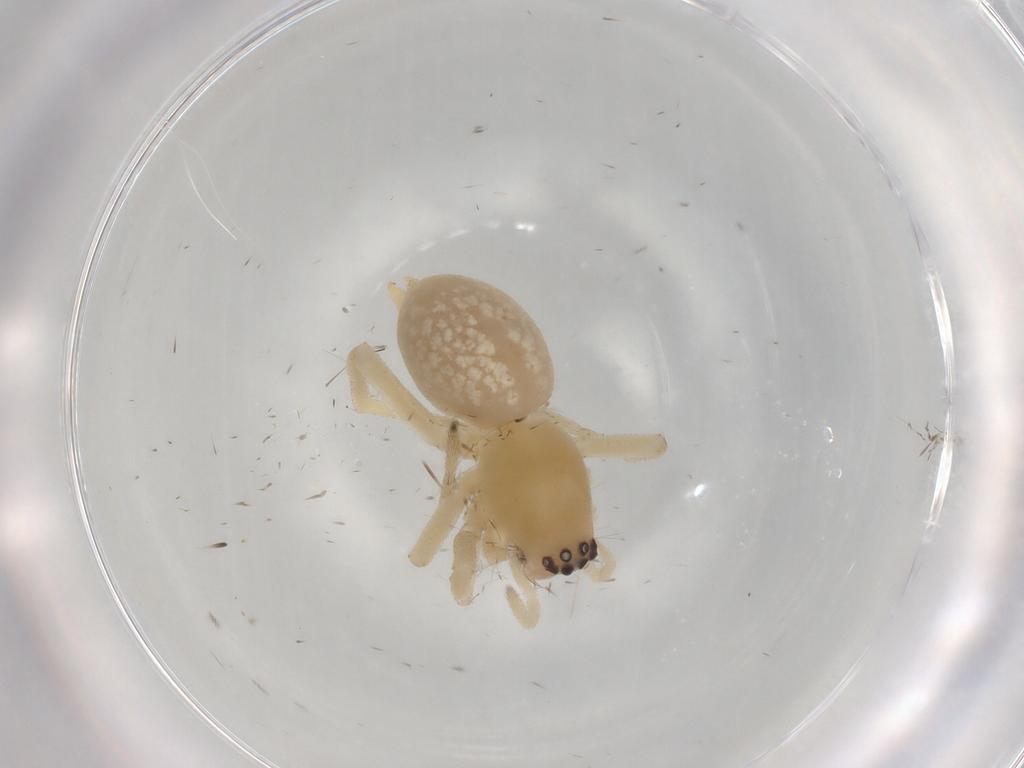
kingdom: Animalia
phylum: Arthropoda
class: Arachnida
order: Araneae
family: Cheiracanthiidae
